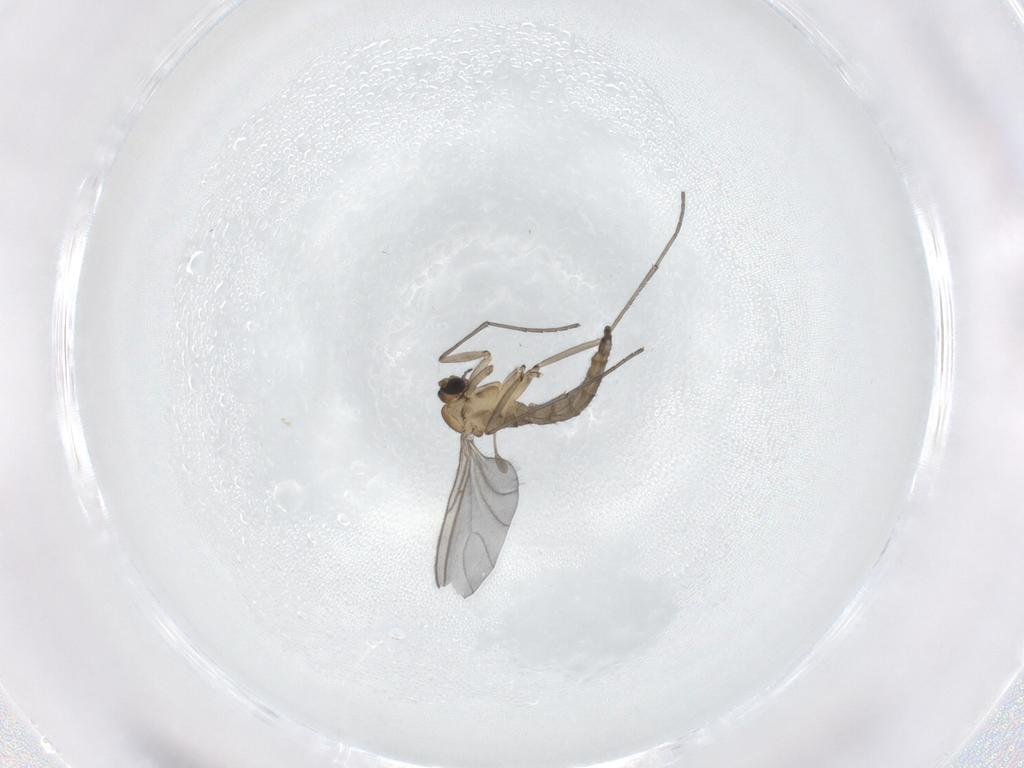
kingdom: Animalia
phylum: Arthropoda
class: Insecta
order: Diptera
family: Sciaridae
